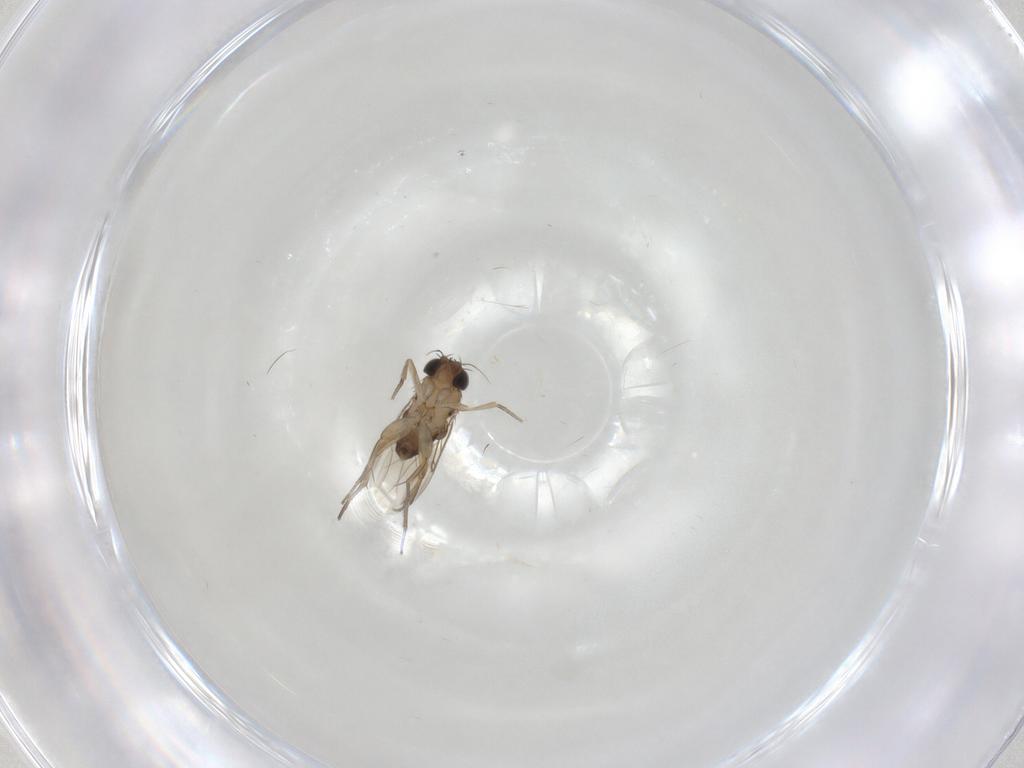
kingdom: Animalia
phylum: Arthropoda
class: Insecta
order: Diptera
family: Phoridae
